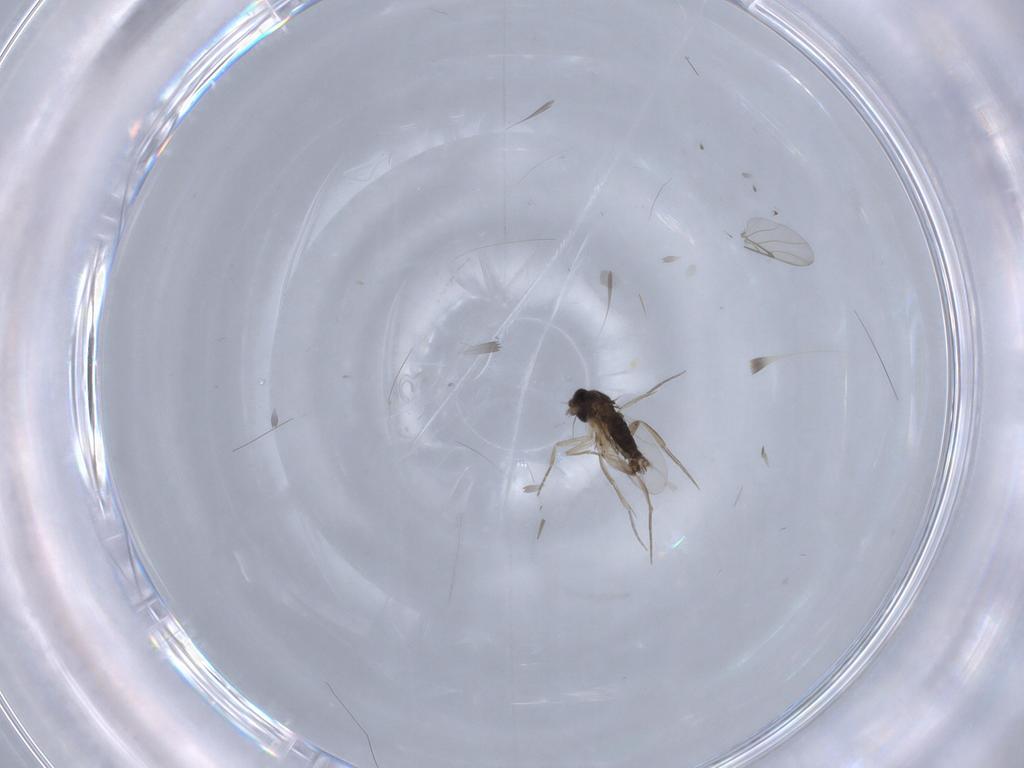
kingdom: Animalia
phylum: Arthropoda
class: Insecta
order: Diptera
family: Phoridae
